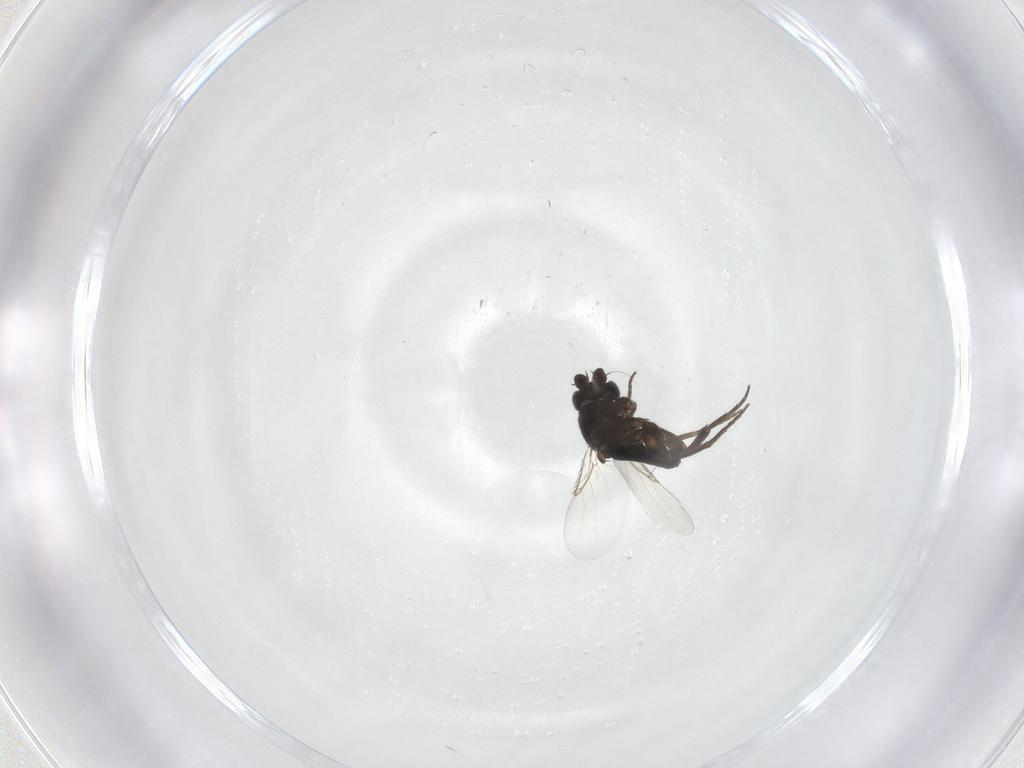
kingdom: Animalia
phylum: Arthropoda
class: Insecta
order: Diptera
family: Phoridae
